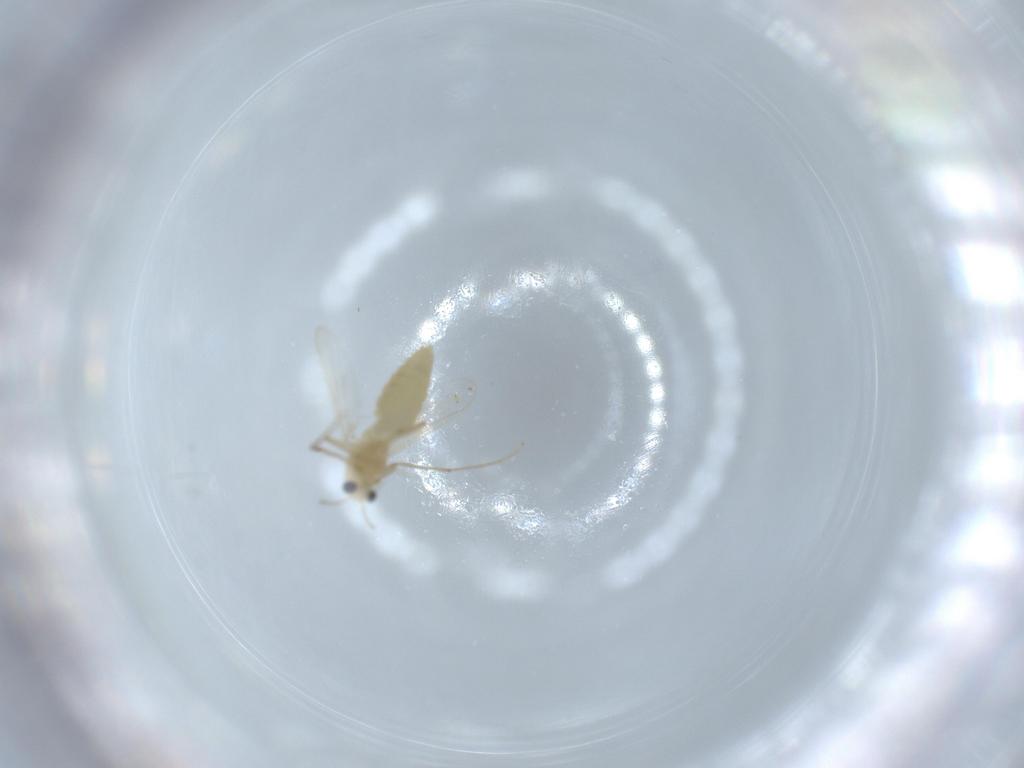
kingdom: Animalia
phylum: Arthropoda
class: Insecta
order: Diptera
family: Chironomidae
